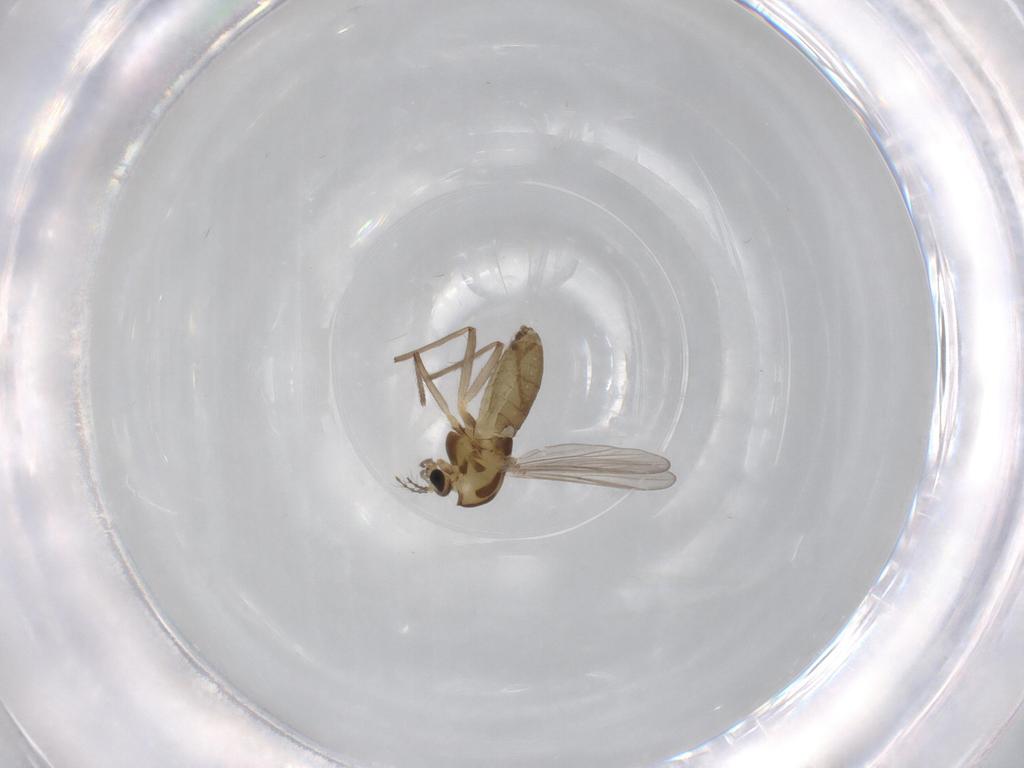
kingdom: Animalia
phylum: Arthropoda
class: Insecta
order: Diptera
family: Chironomidae
